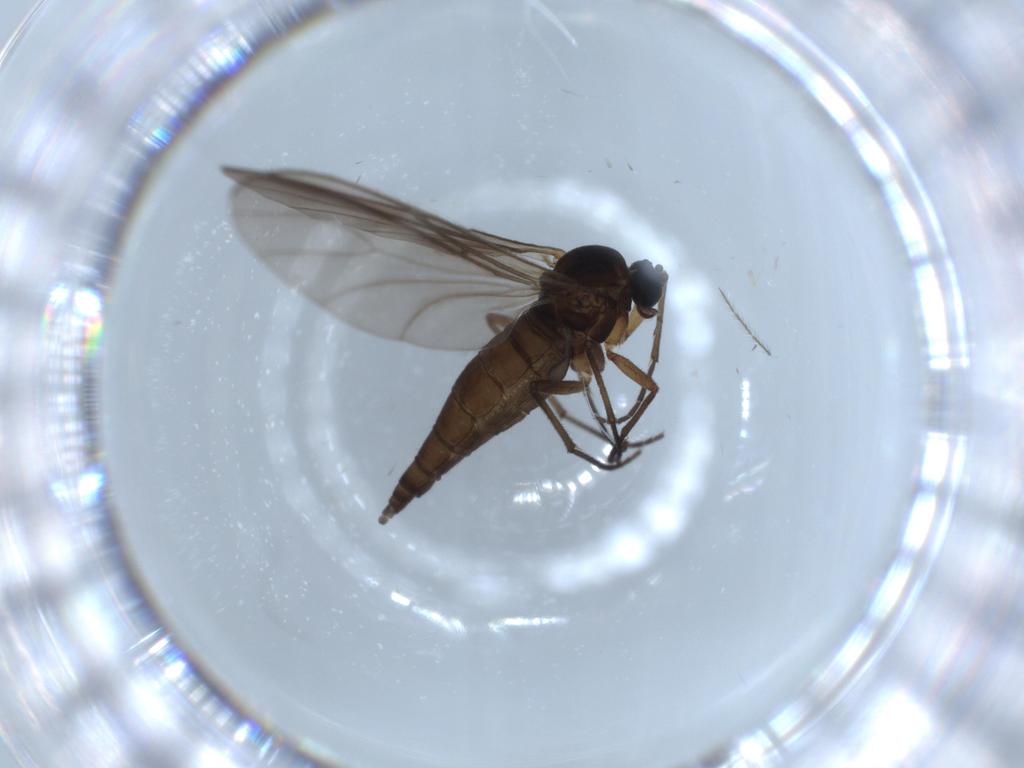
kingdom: Animalia
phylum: Arthropoda
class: Insecta
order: Diptera
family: Sciaridae
